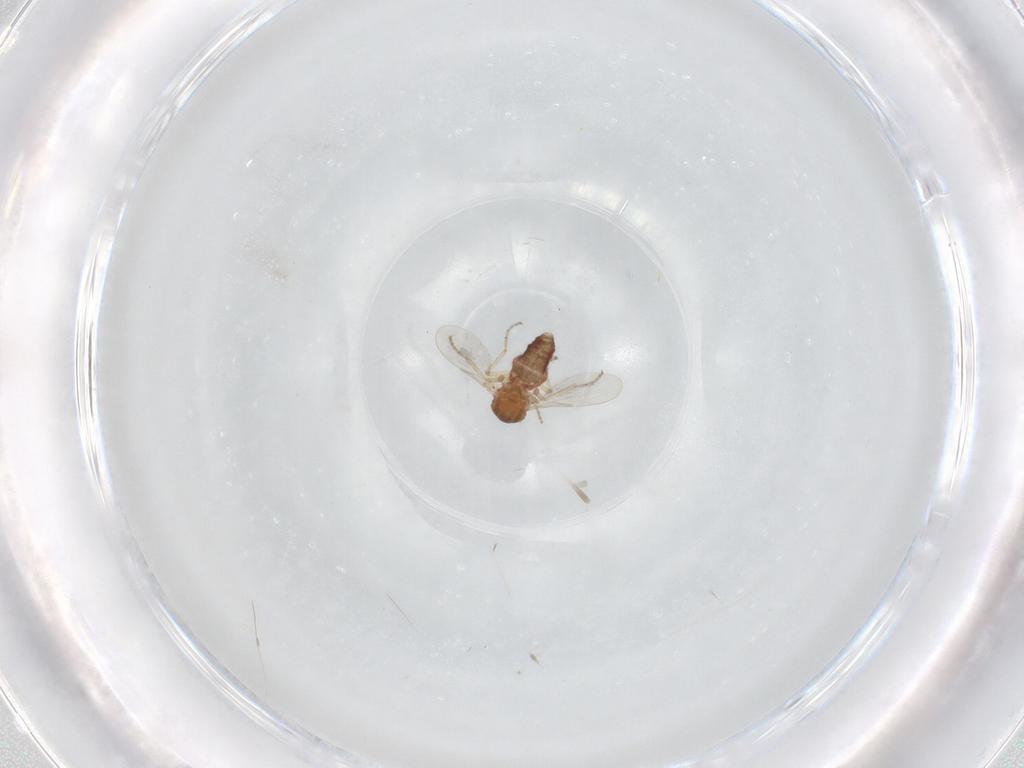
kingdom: Animalia
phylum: Arthropoda
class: Insecta
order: Diptera
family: Phoridae
